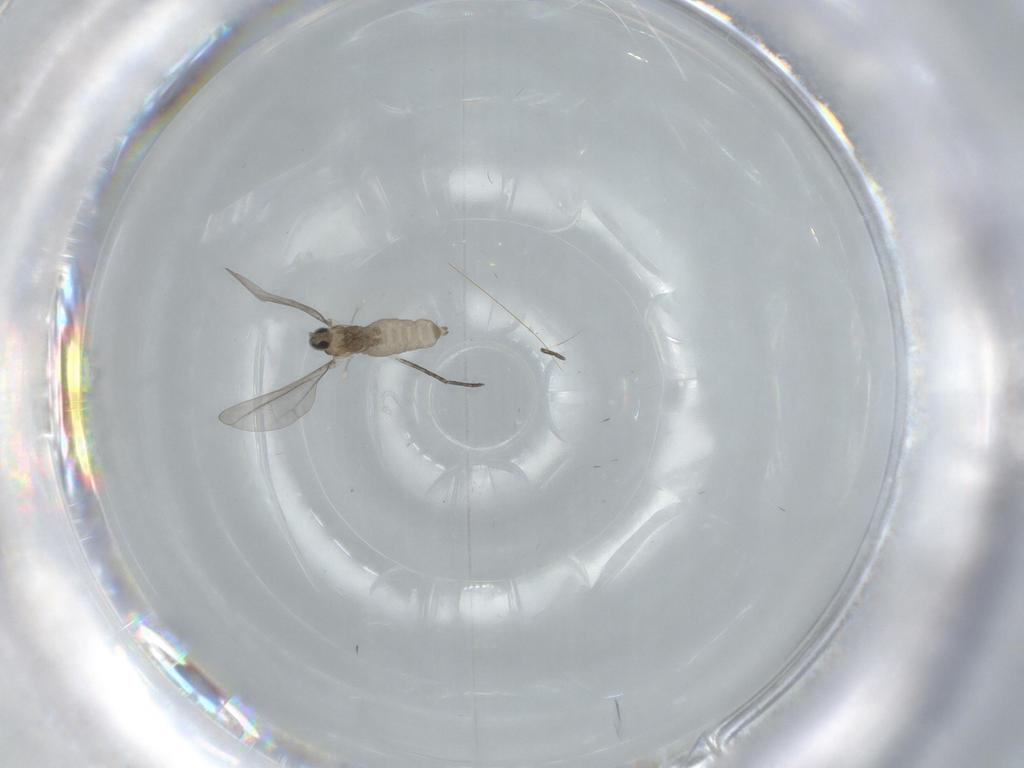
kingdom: Animalia
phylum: Arthropoda
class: Insecta
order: Diptera
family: Cecidomyiidae
